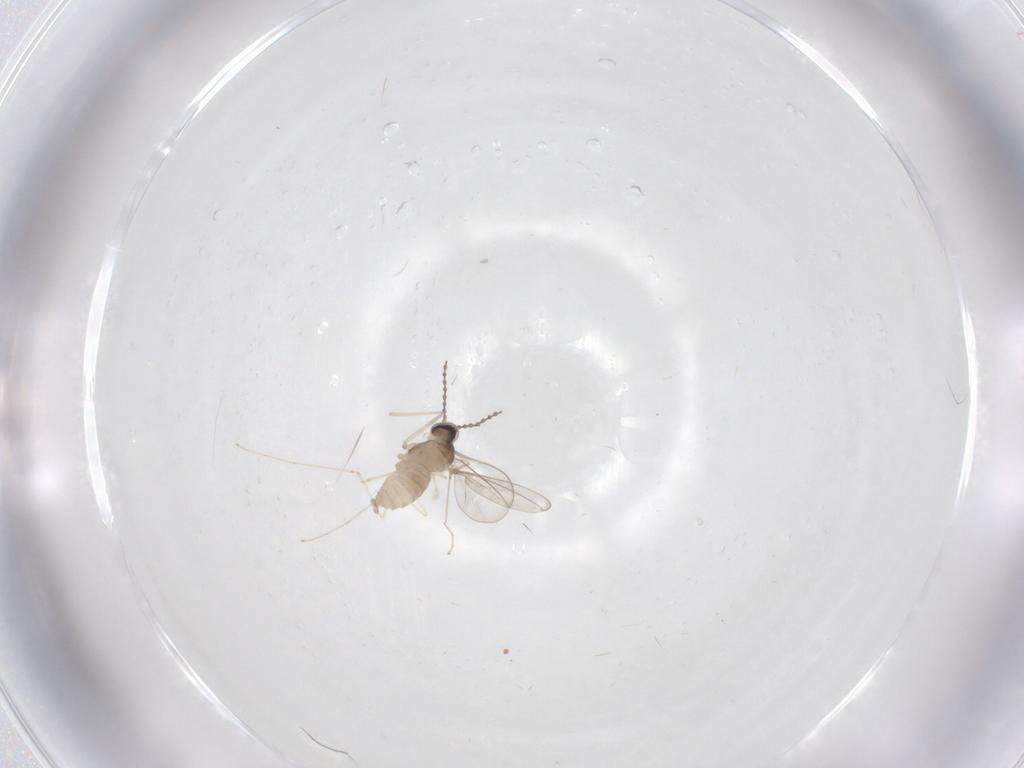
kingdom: Animalia
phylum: Arthropoda
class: Insecta
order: Diptera
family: Cecidomyiidae
